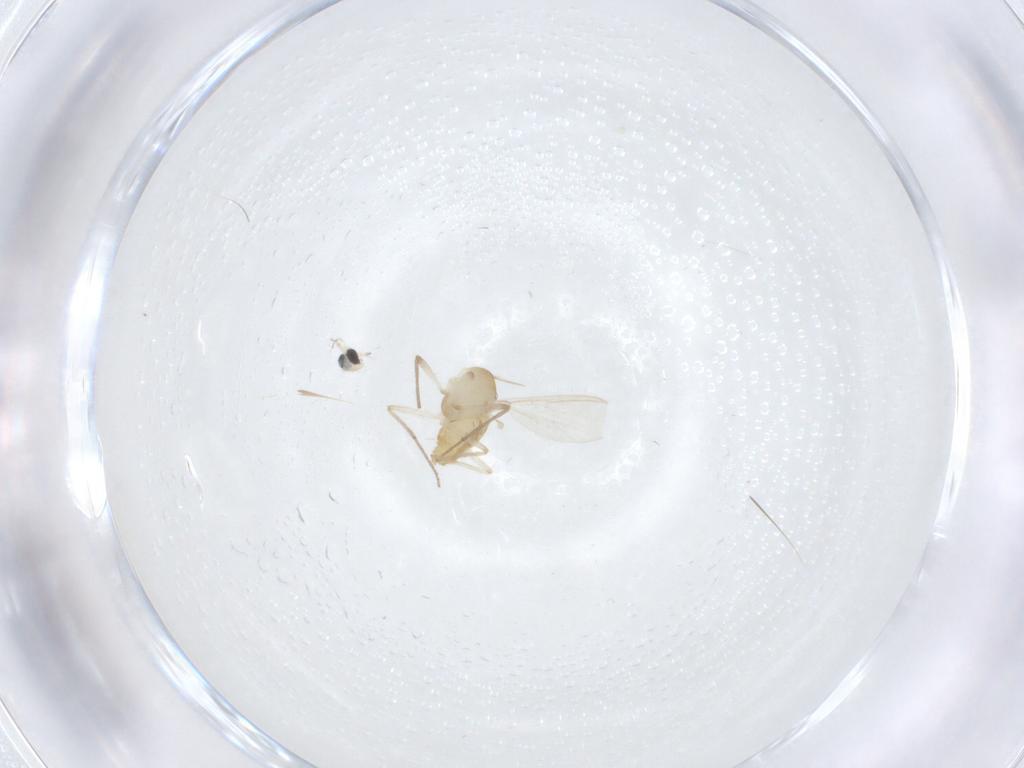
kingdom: Animalia
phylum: Arthropoda
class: Insecta
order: Diptera
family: Chironomidae
